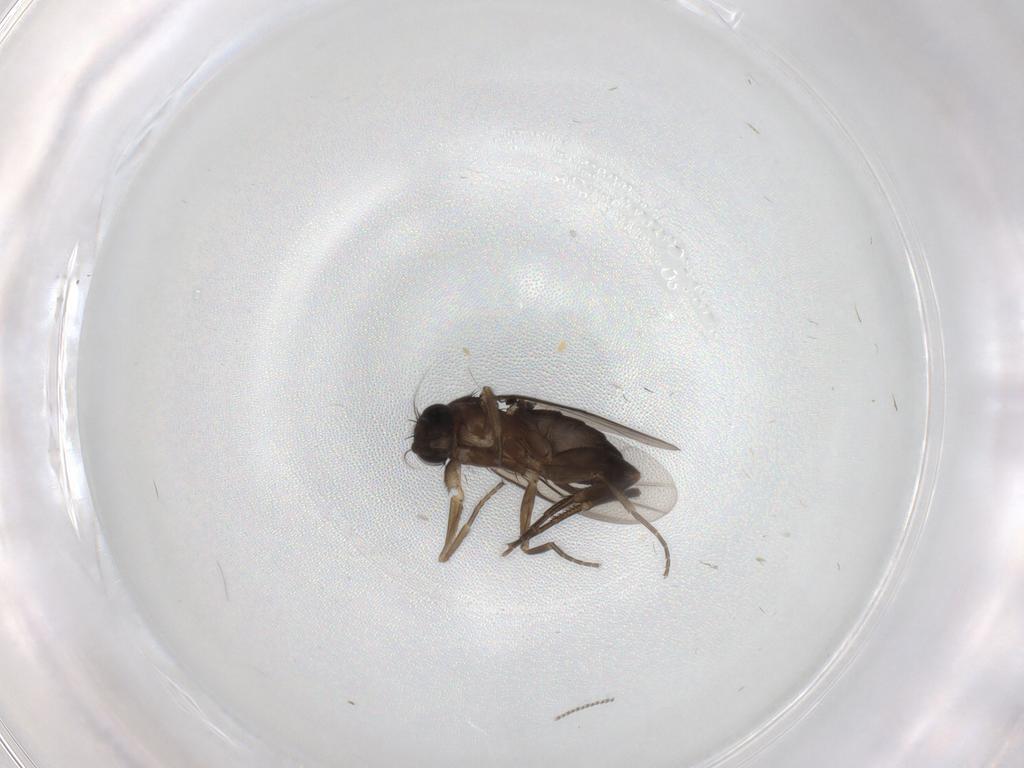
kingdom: Animalia
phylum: Arthropoda
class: Insecta
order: Diptera
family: Phoridae
